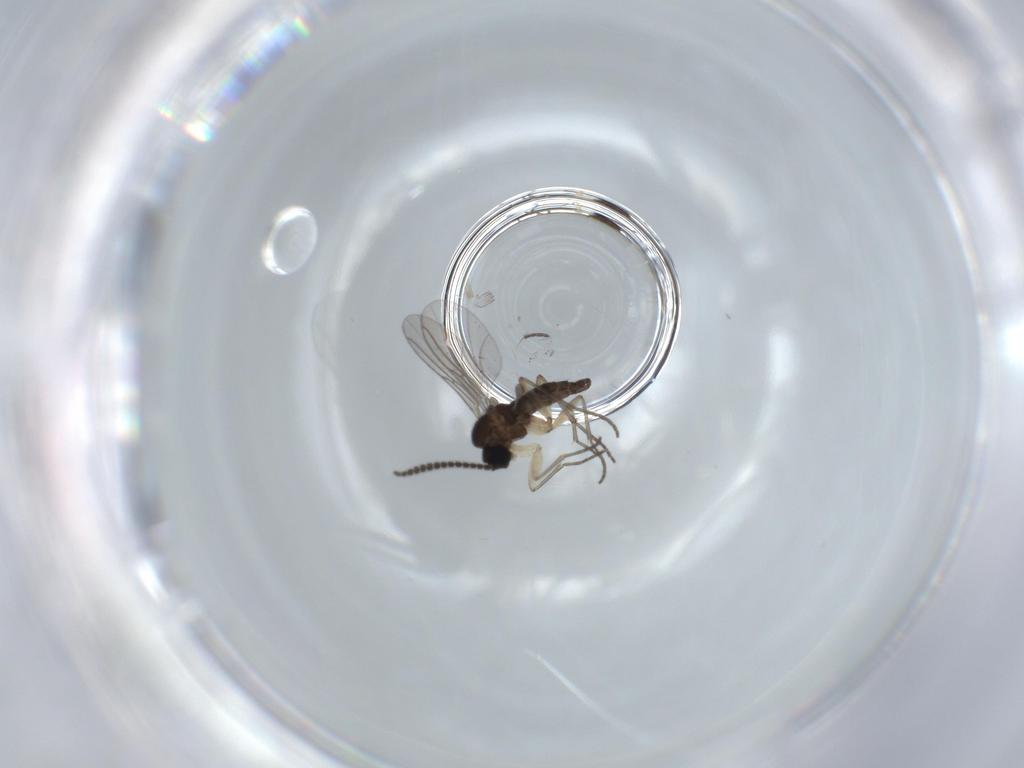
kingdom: Animalia
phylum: Arthropoda
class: Insecta
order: Diptera
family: Sciaridae
